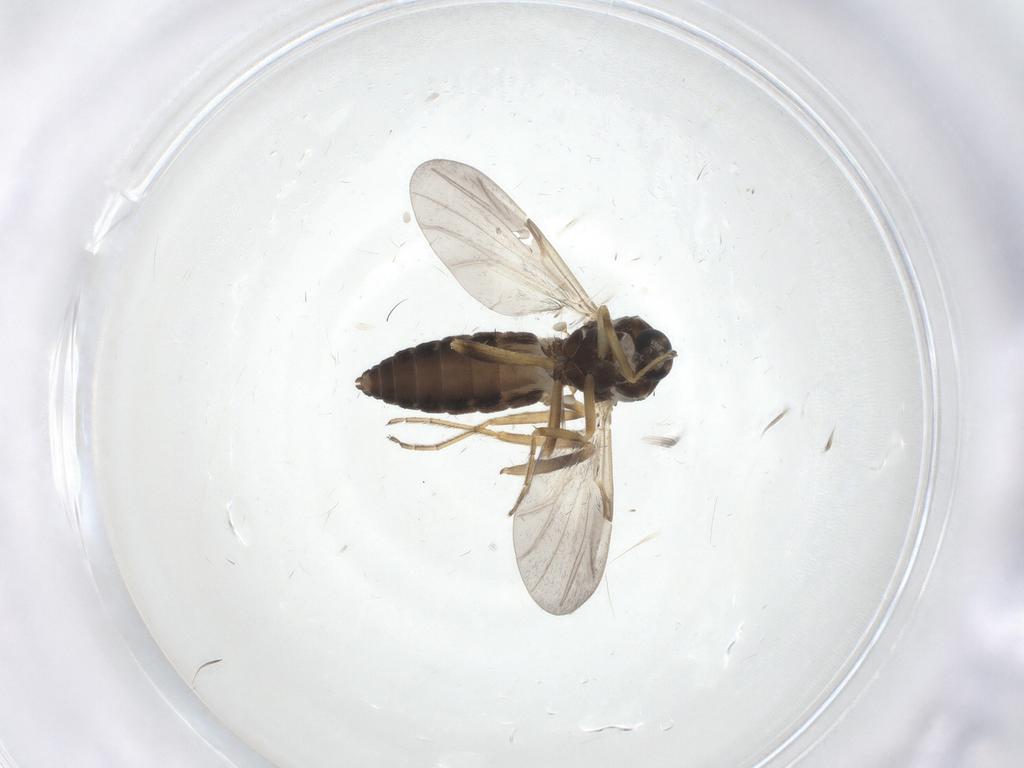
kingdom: Animalia
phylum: Arthropoda
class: Insecta
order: Diptera
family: Ceratopogonidae
